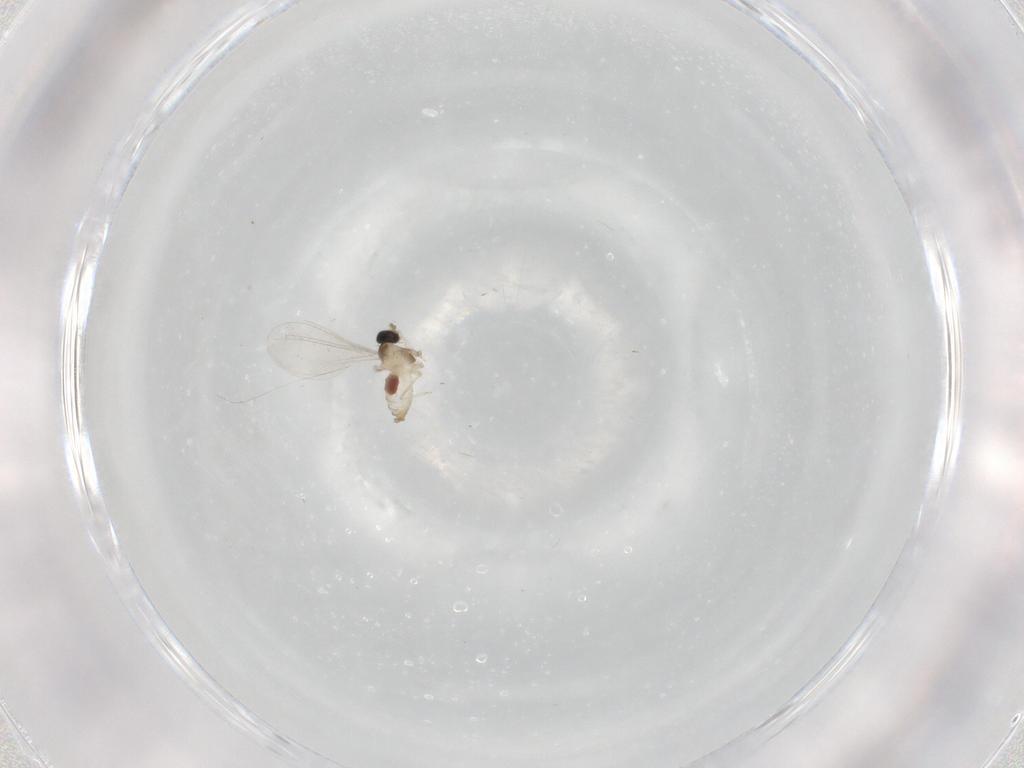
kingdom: Animalia
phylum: Arthropoda
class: Insecta
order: Diptera
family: Cecidomyiidae
